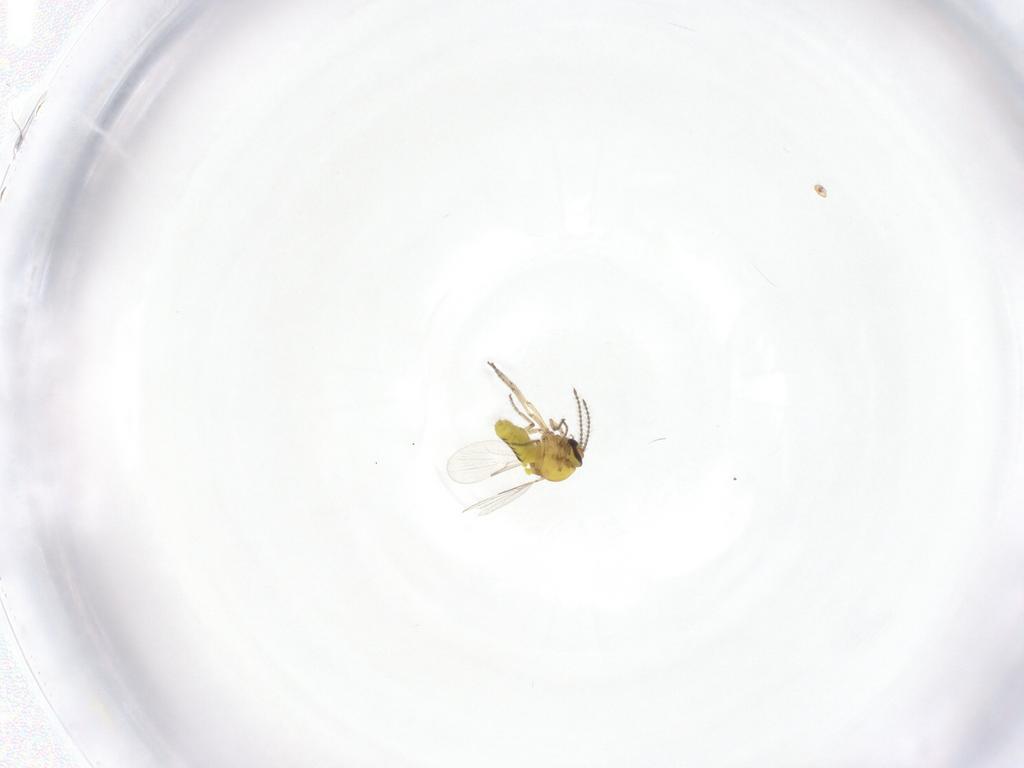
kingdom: Animalia
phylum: Arthropoda
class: Insecta
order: Diptera
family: Ceratopogonidae
